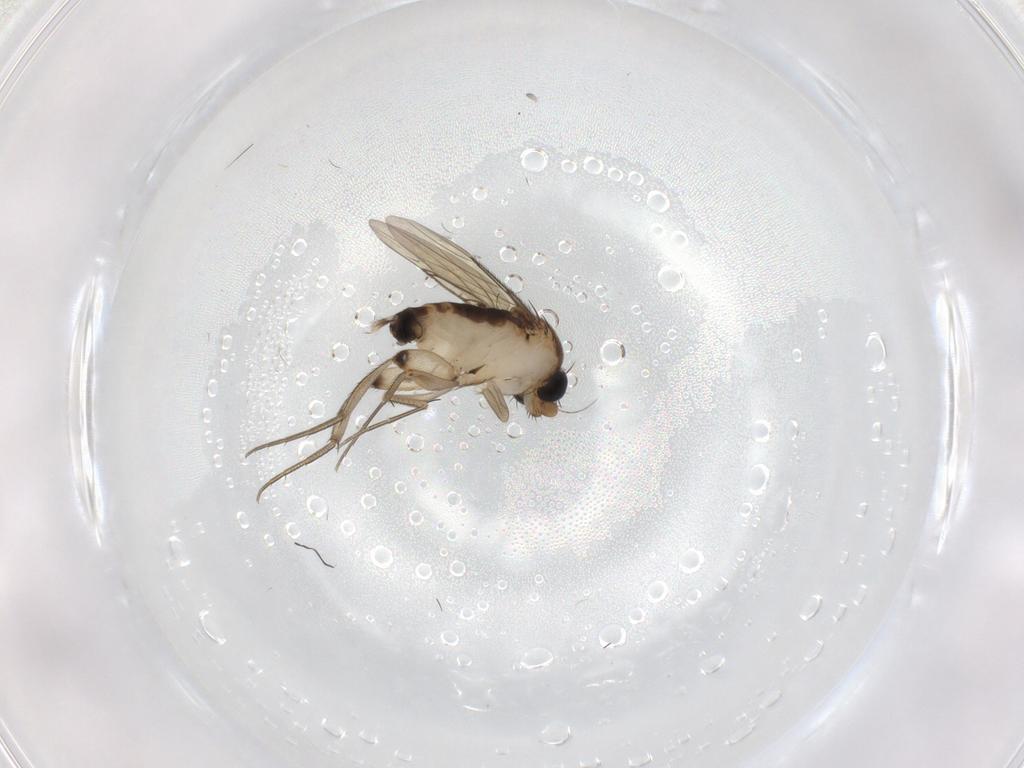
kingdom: Animalia
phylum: Arthropoda
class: Insecta
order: Diptera
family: Phoridae
